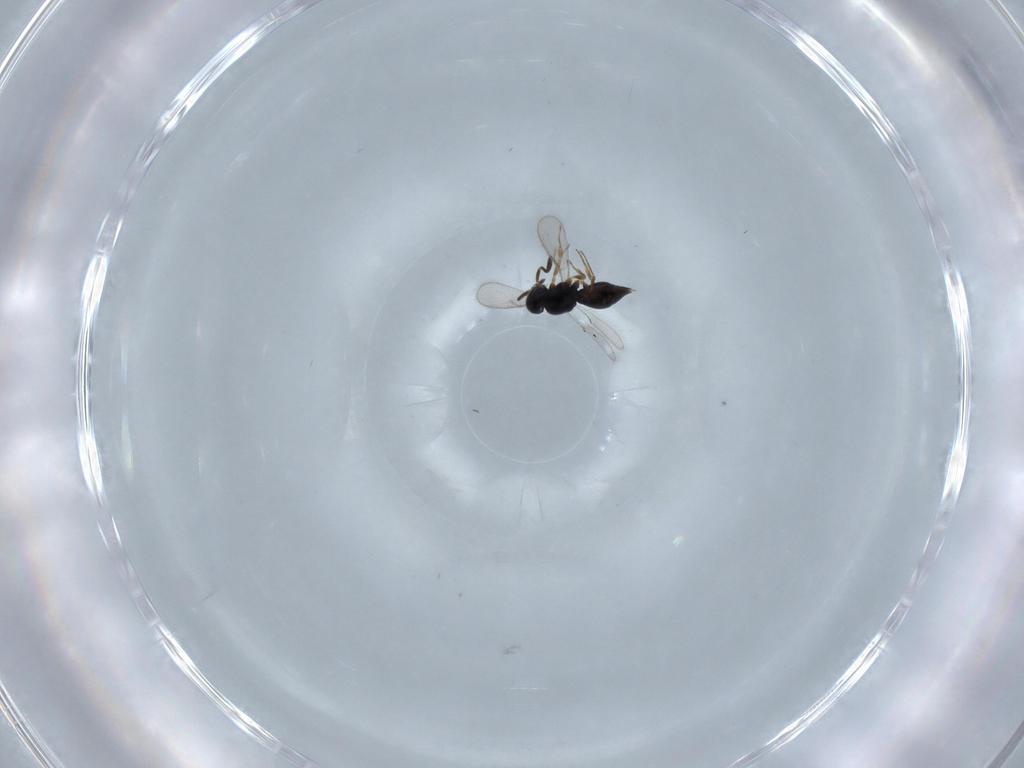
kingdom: Animalia
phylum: Arthropoda
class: Insecta
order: Hymenoptera
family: Scelionidae
